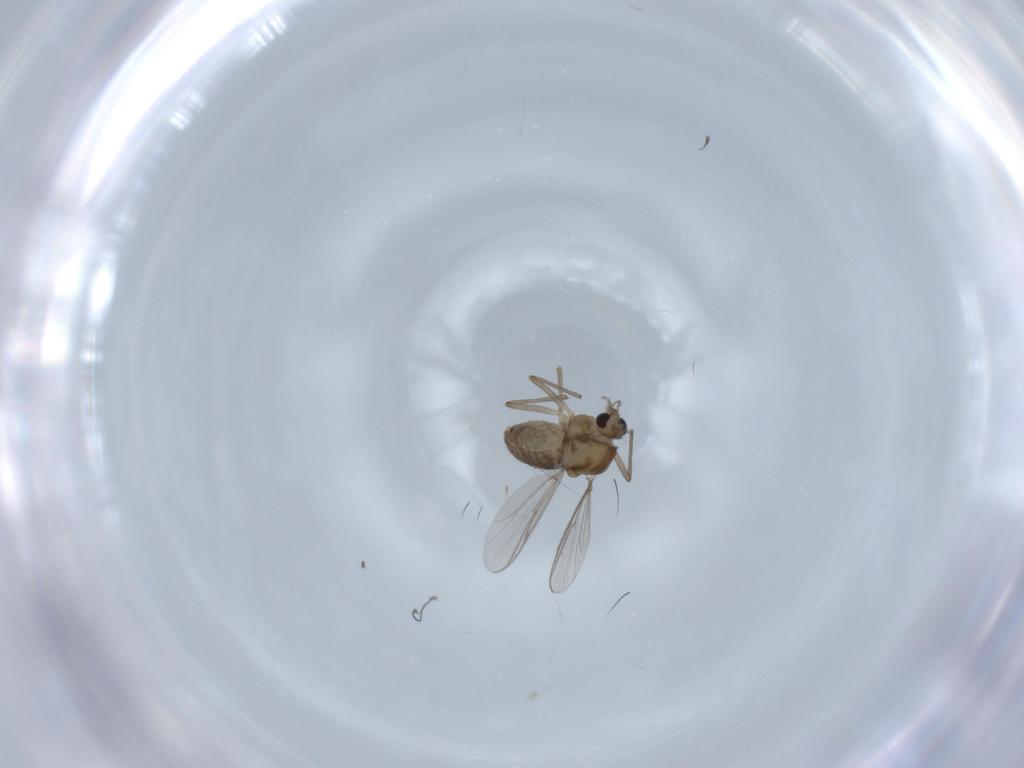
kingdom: Animalia
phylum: Arthropoda
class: Insecta
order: Diptera
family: Chironomidae
